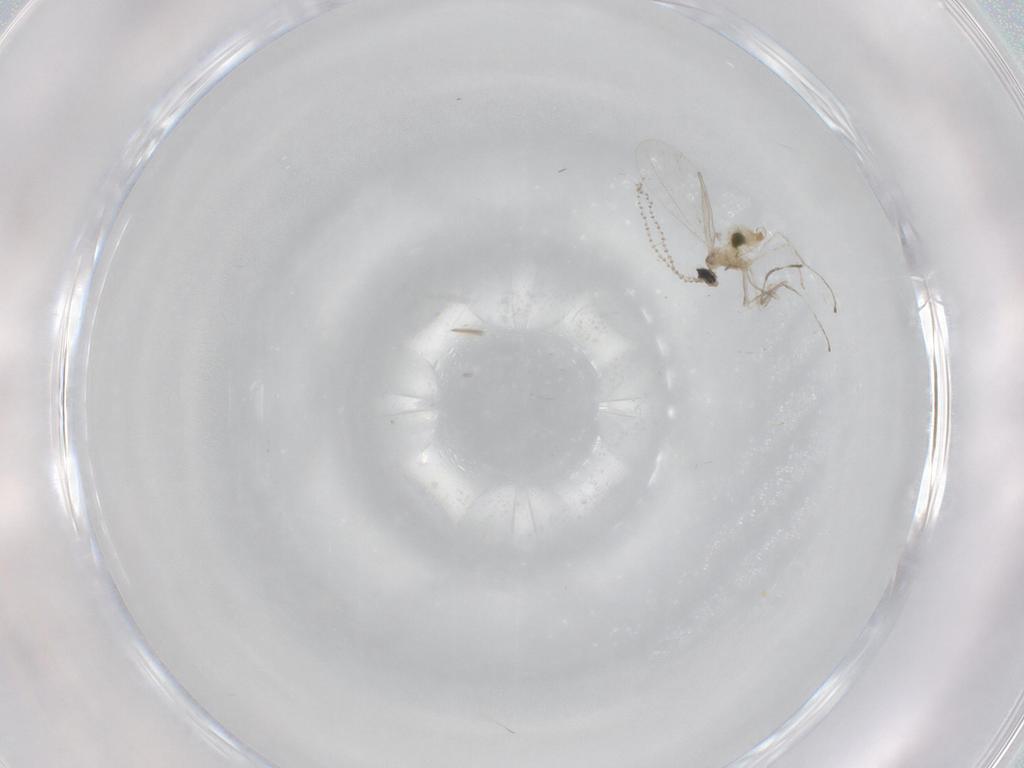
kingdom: Animalia
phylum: Arthropoda
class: Insecta
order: Diptera
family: Cecidomyiidae
